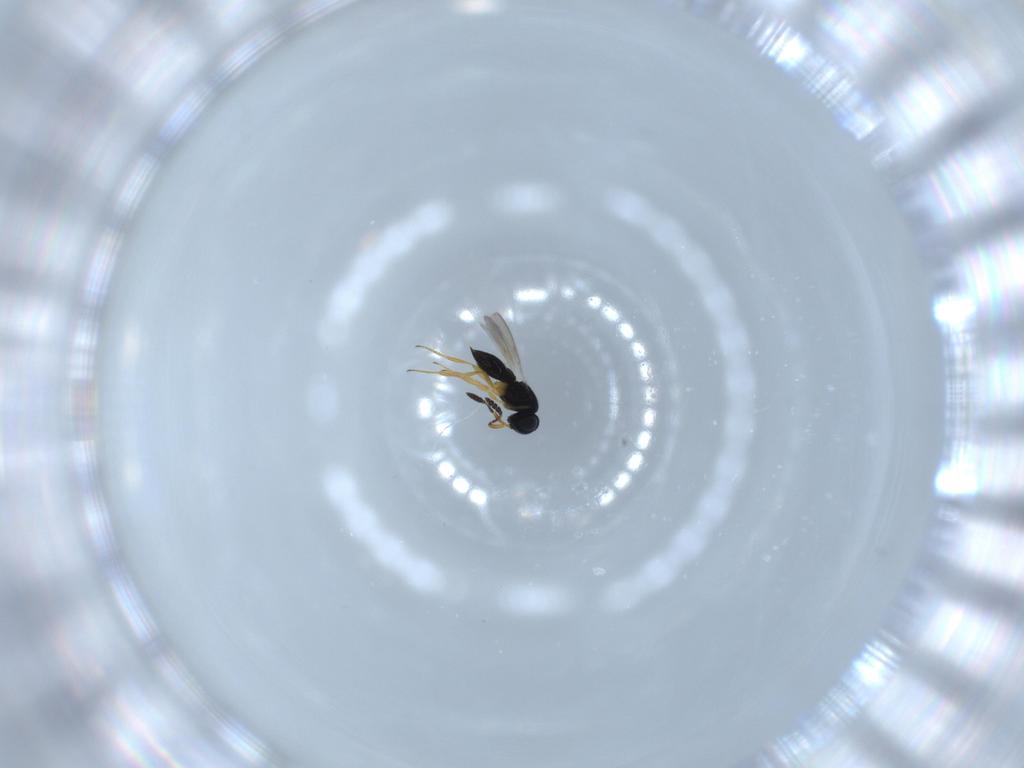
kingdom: Animalia
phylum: Arthropoda
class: Insecta
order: Hymenoptera
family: Scelionidae
